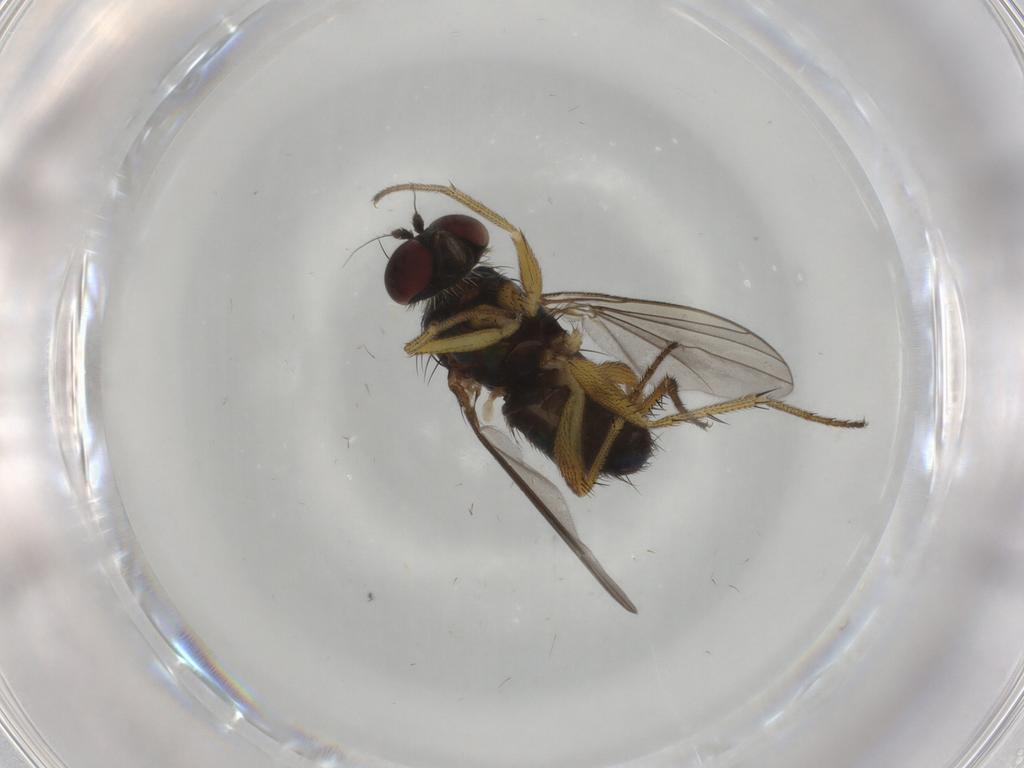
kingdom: Animalia
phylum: Arthropoda
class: Insecta
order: Diptera
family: Dolichopodidae
